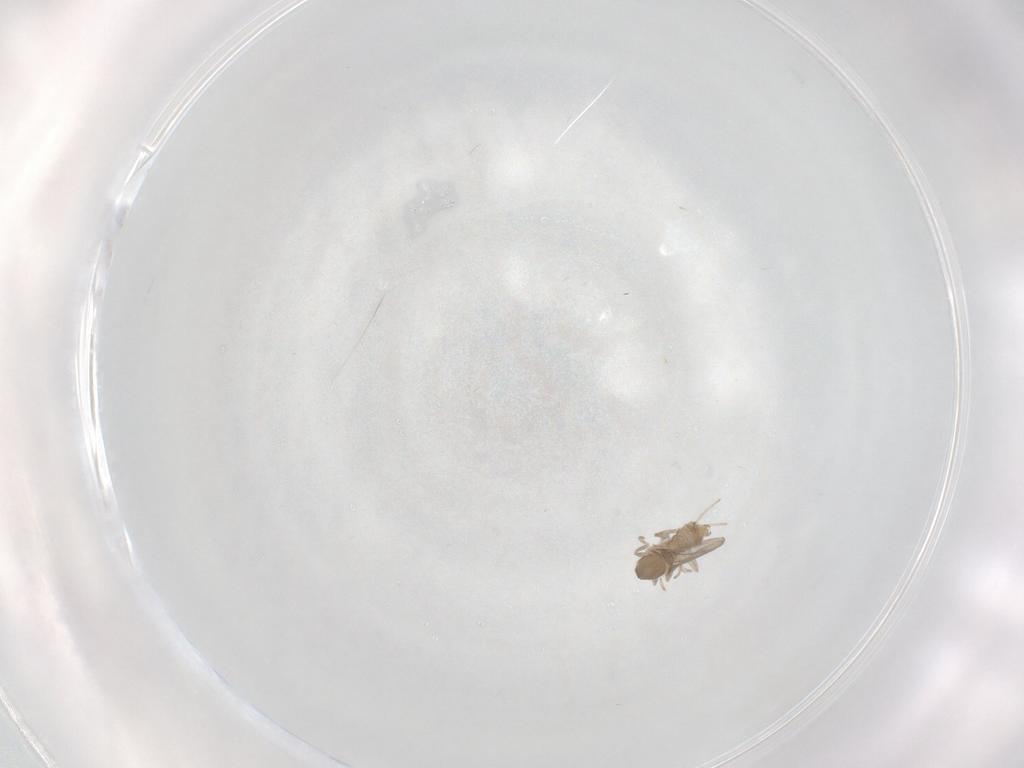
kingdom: Animalia
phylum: Arthropoda
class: Insecta
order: Diptera
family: Cecidomyiidae
